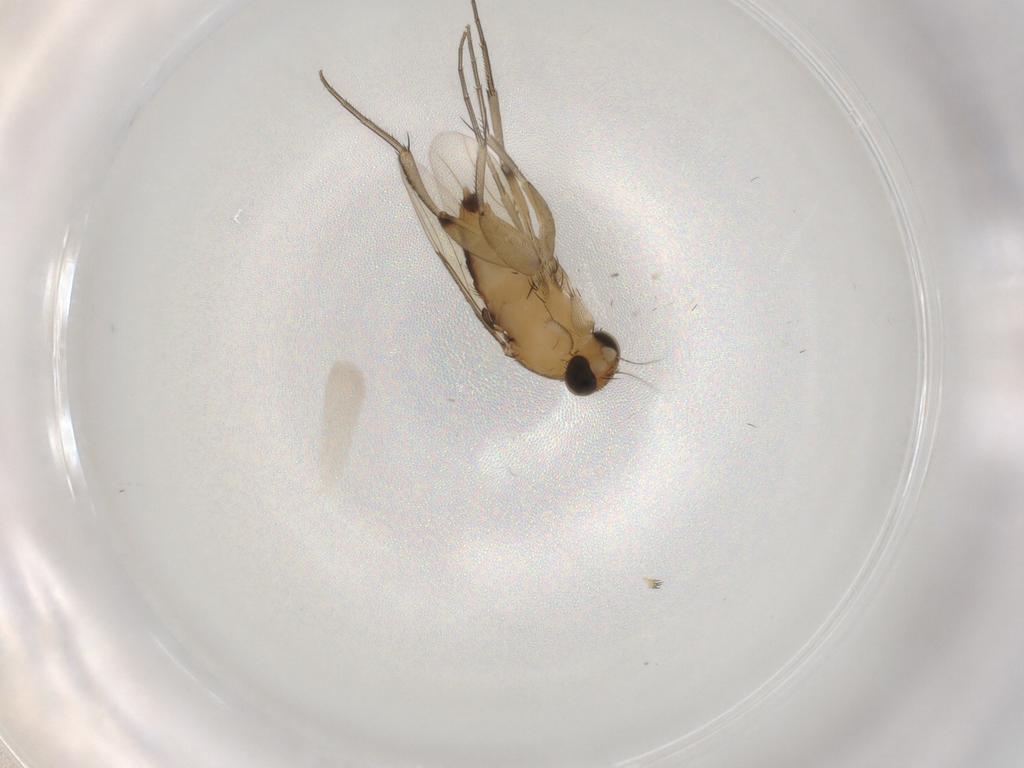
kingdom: Animalia
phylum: Arthropoda
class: Insecta
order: Diptera
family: Phoridae
